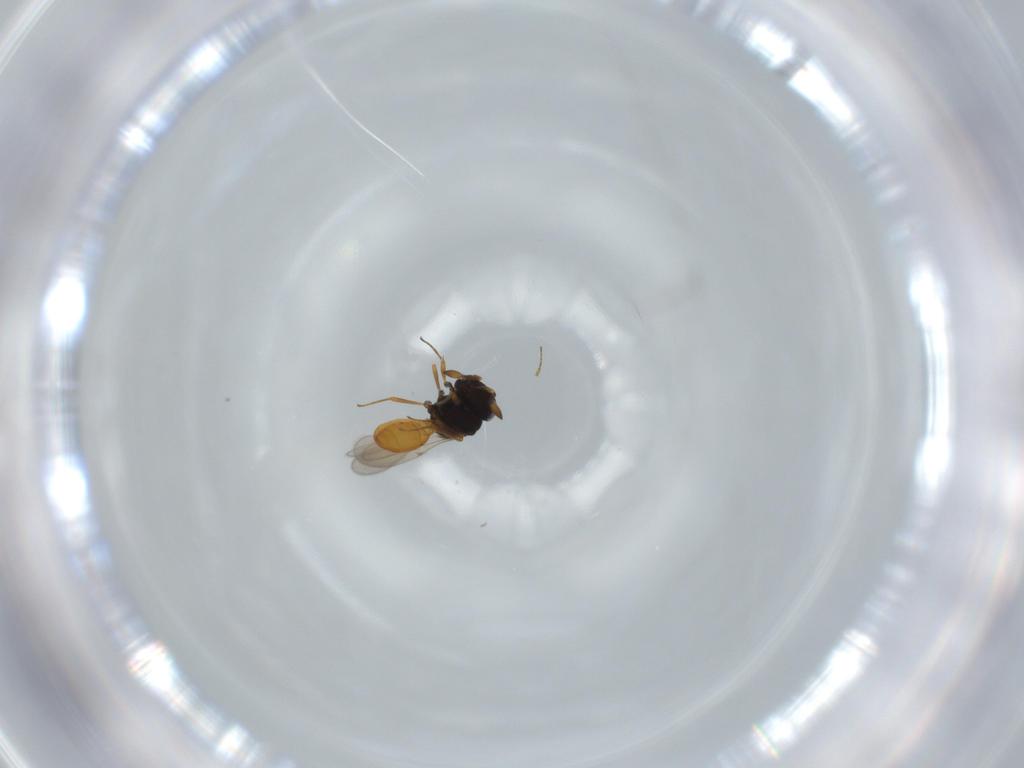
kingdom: Animalia
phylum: Arthropoda
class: Insecta
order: Hymenoptera
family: Scelionidae
